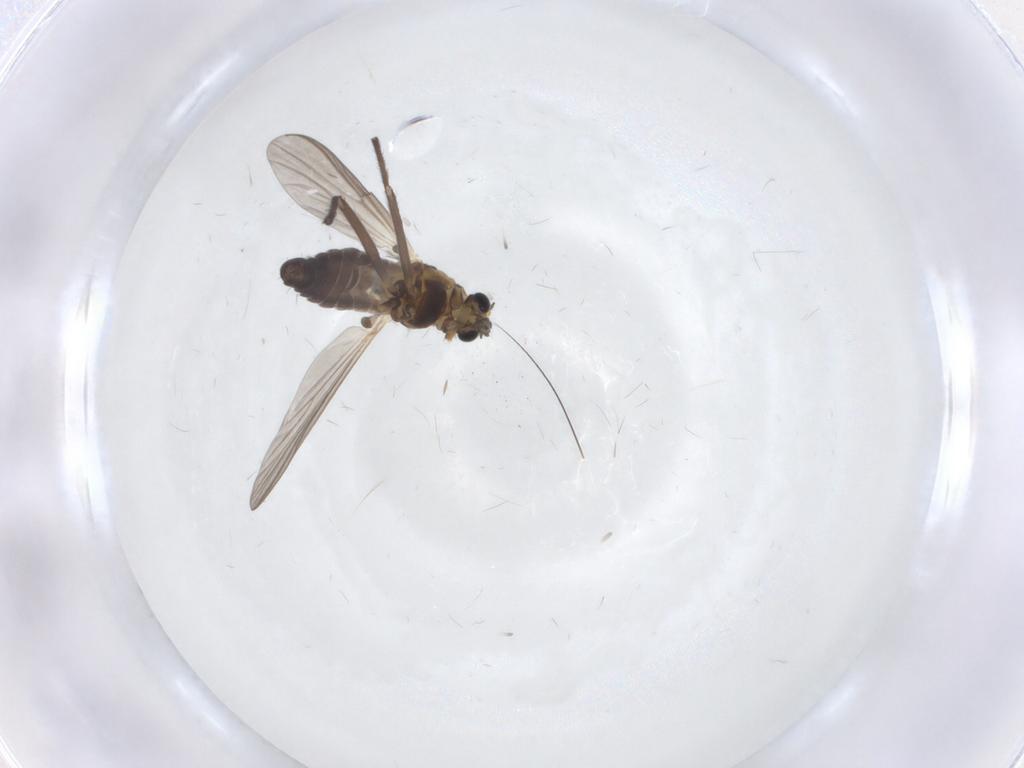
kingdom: Animalia
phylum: Arthropoda
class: Insecta
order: Diptera
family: Chironomidae
